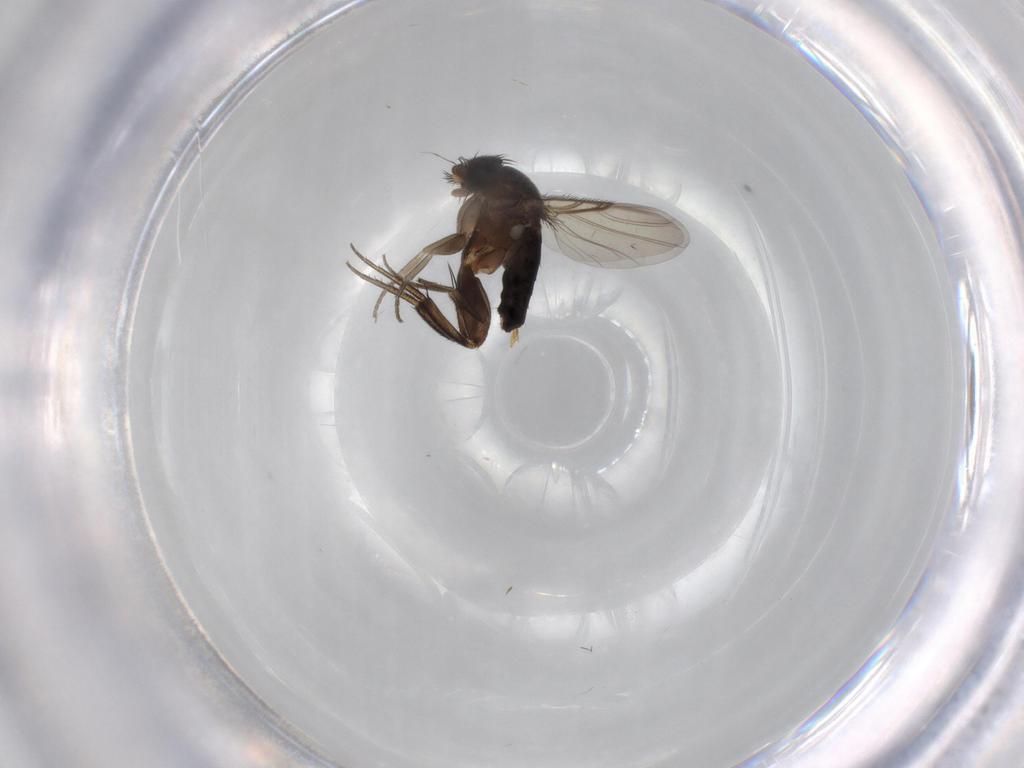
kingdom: Animalia
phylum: Arthropoda
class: Insecta
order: Diptera
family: Phoridae
